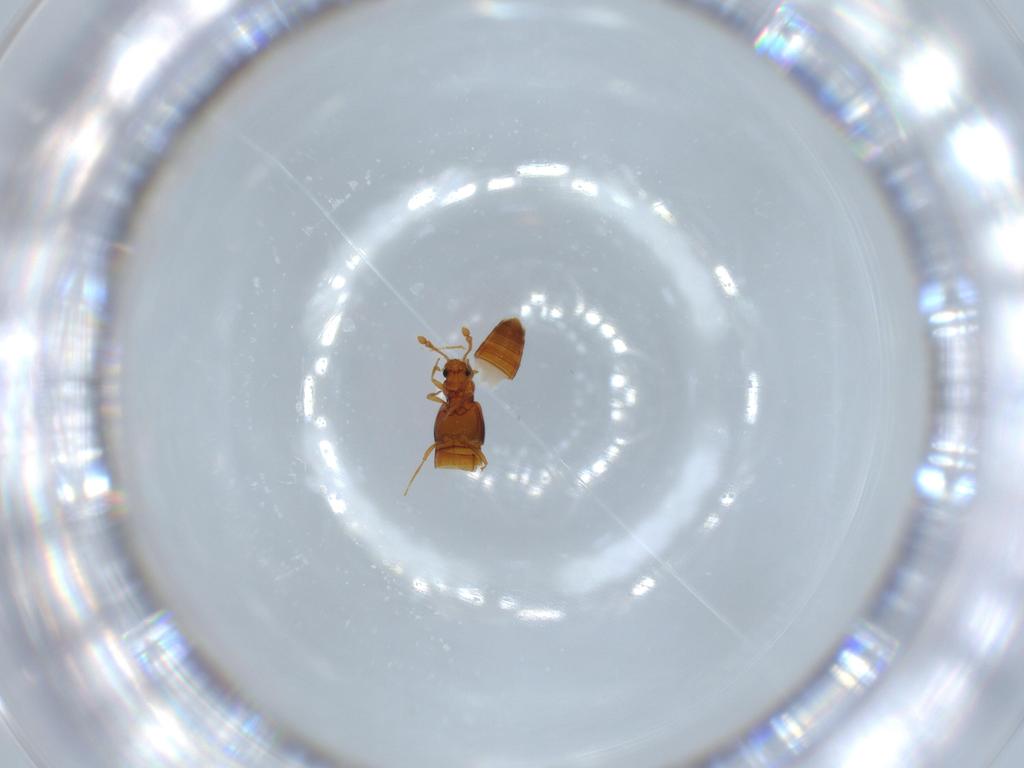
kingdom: Animalia
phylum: Arthropoda
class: Insecta
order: Coleoptera
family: Staphylinidae
